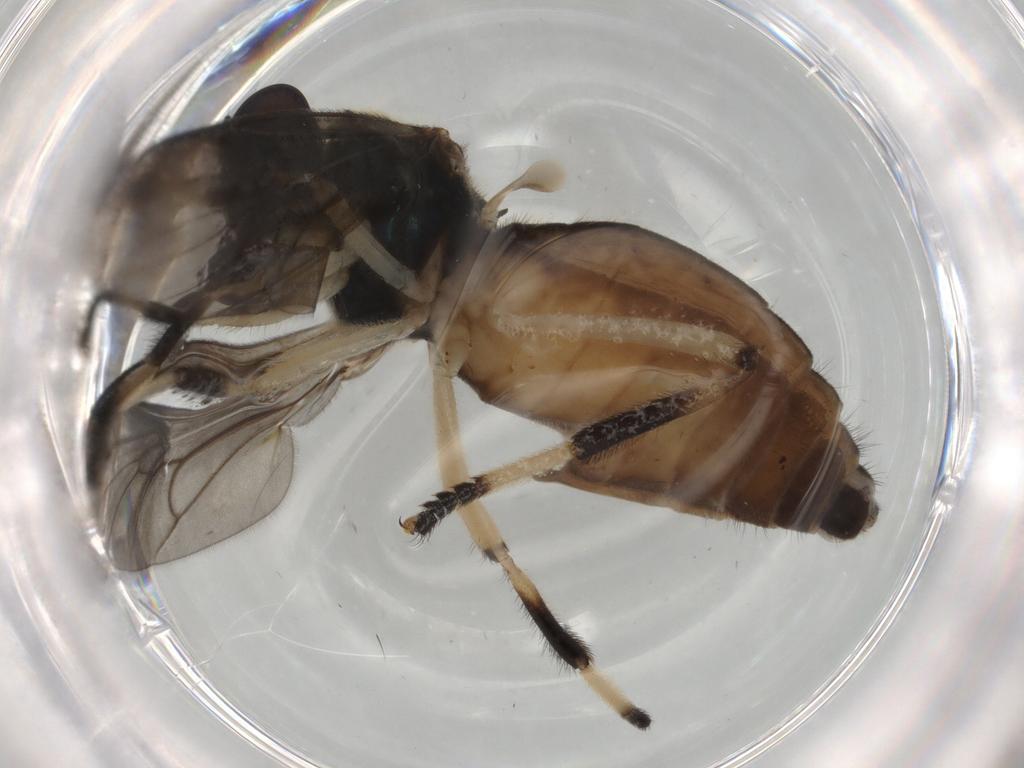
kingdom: Animalia
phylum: Arthropoda
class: Insecta
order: Diptera
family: Stratiomyidae
